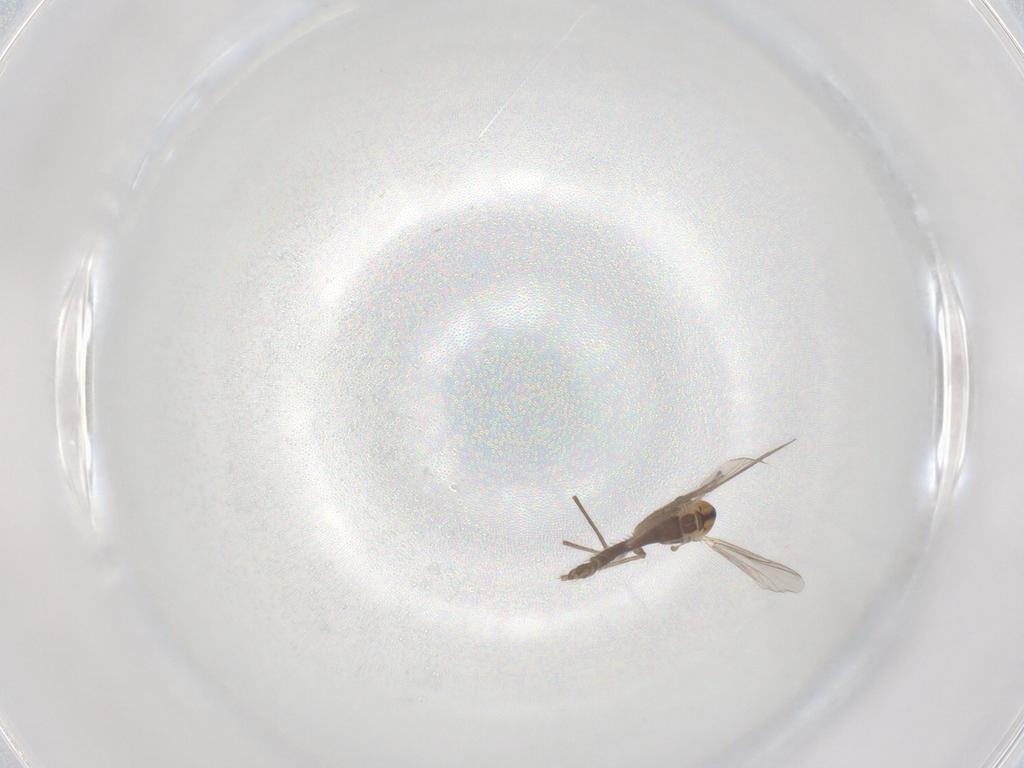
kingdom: Animalia
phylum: Arthropoda
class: Insecta
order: Diptera
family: Chironomidae
